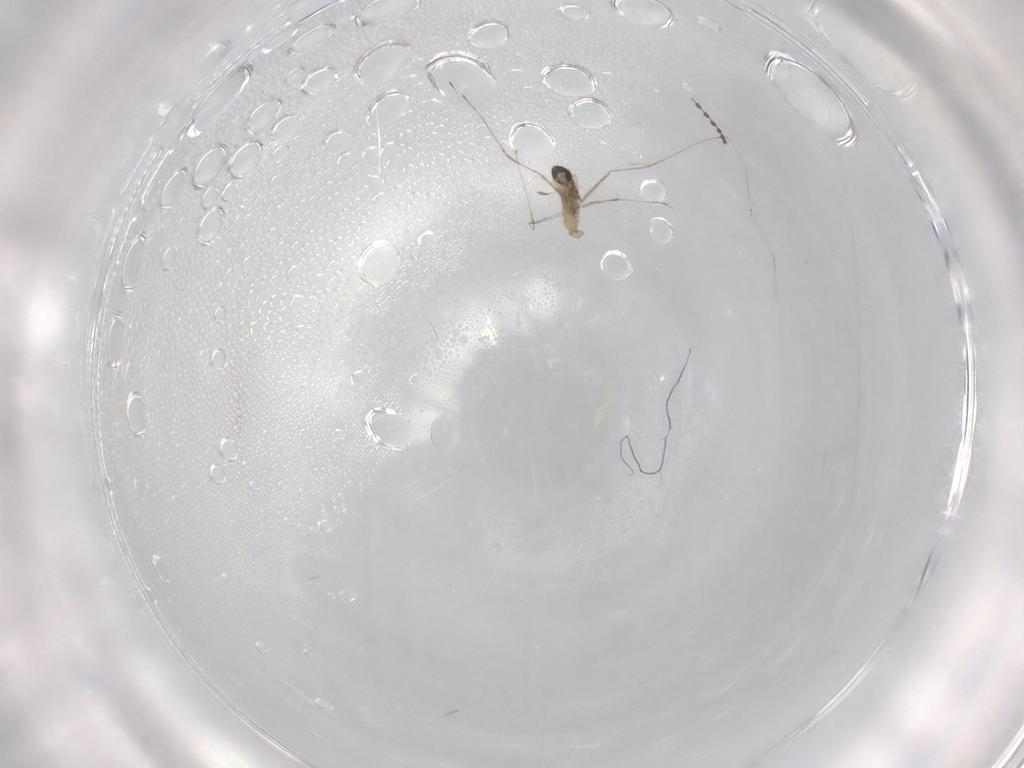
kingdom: Animalia
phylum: Arthropoda
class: Insecta
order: Diptera
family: Cecidomyiidae
